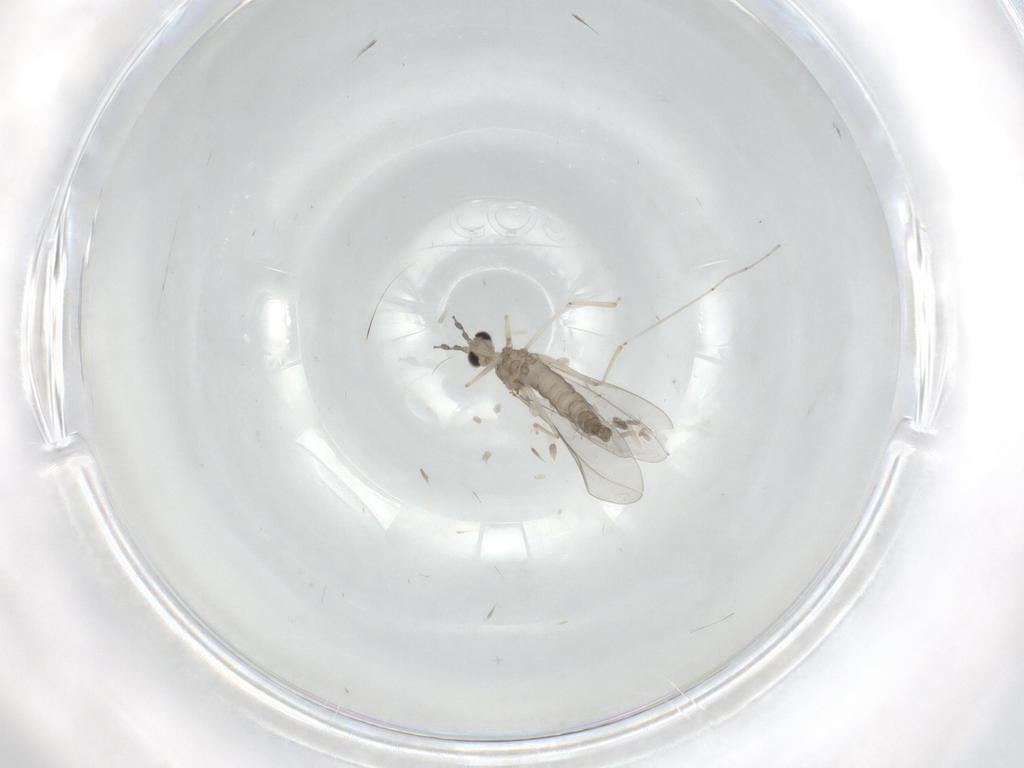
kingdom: Animalia
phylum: Arthropoda
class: Insecta
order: Diptera
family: Cecidomyiidae
